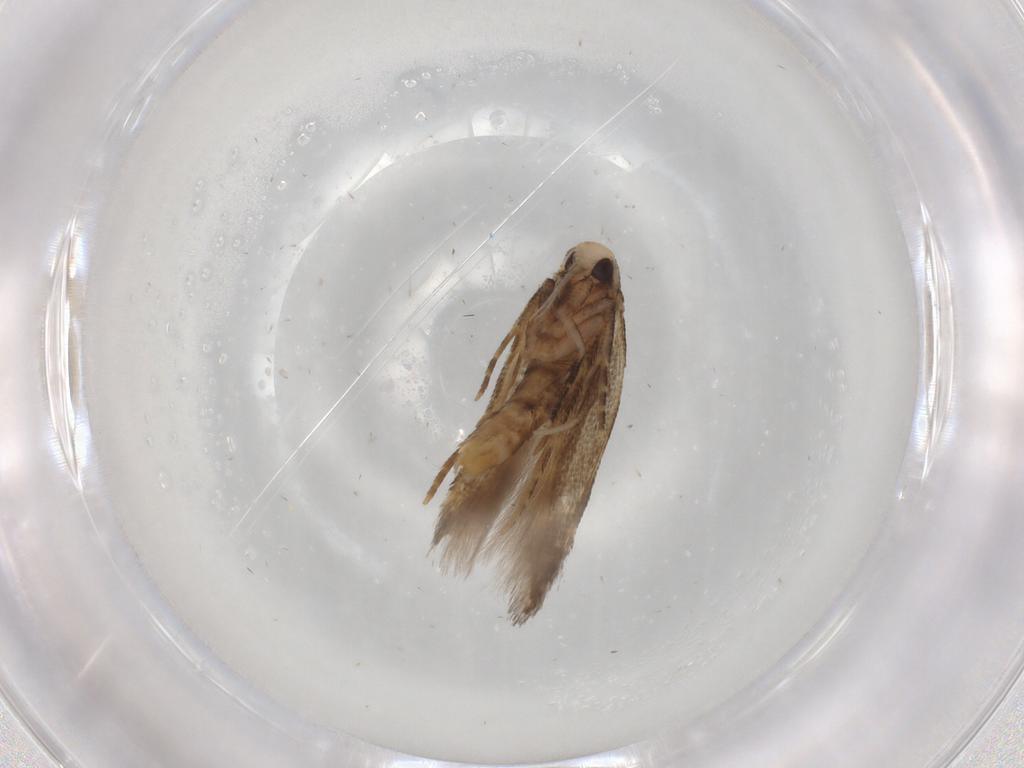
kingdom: Animalia
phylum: Arthropoda
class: Insecta
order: Lepidoptera
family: Cosmopterigidae
